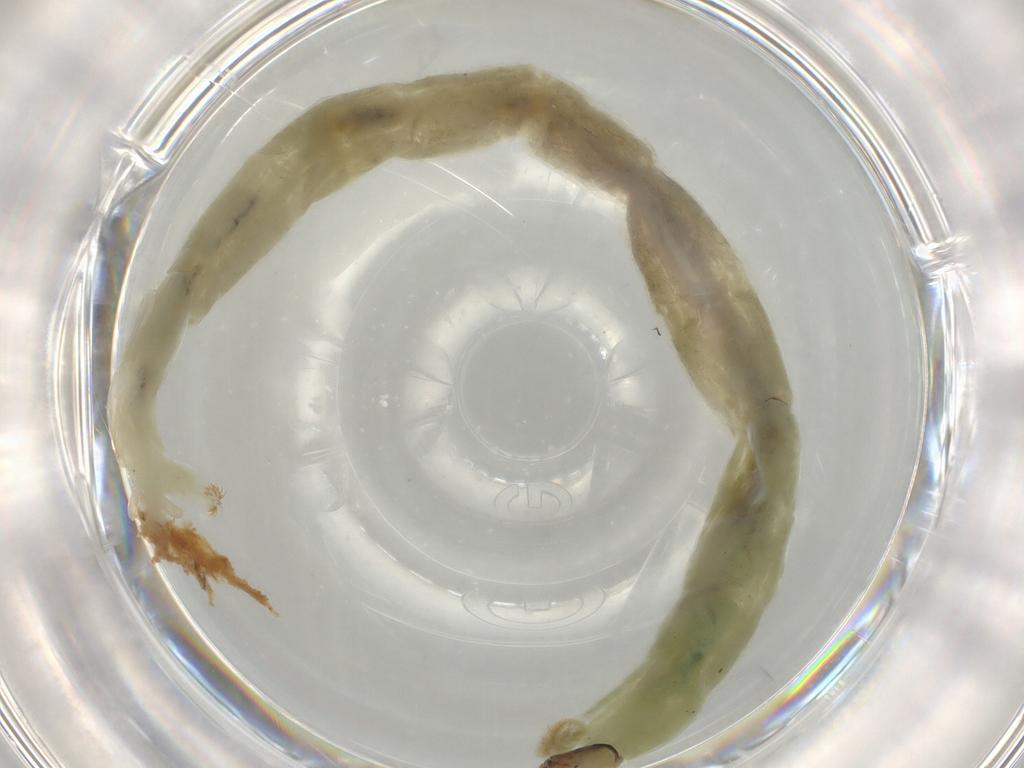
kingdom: Animalia
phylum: Arthropoda
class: Insecta
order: Diptera
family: Chironomidae
